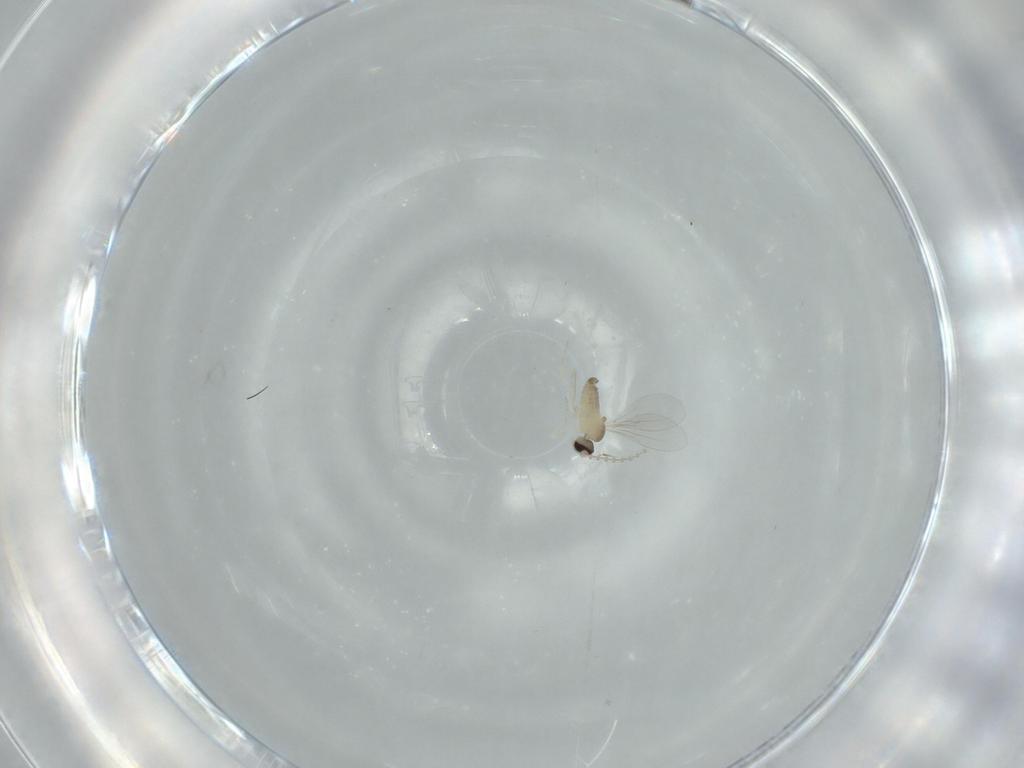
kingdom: Animalia
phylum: Arthropoda
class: Insecta
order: Diptera
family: Cecidomyiidae
